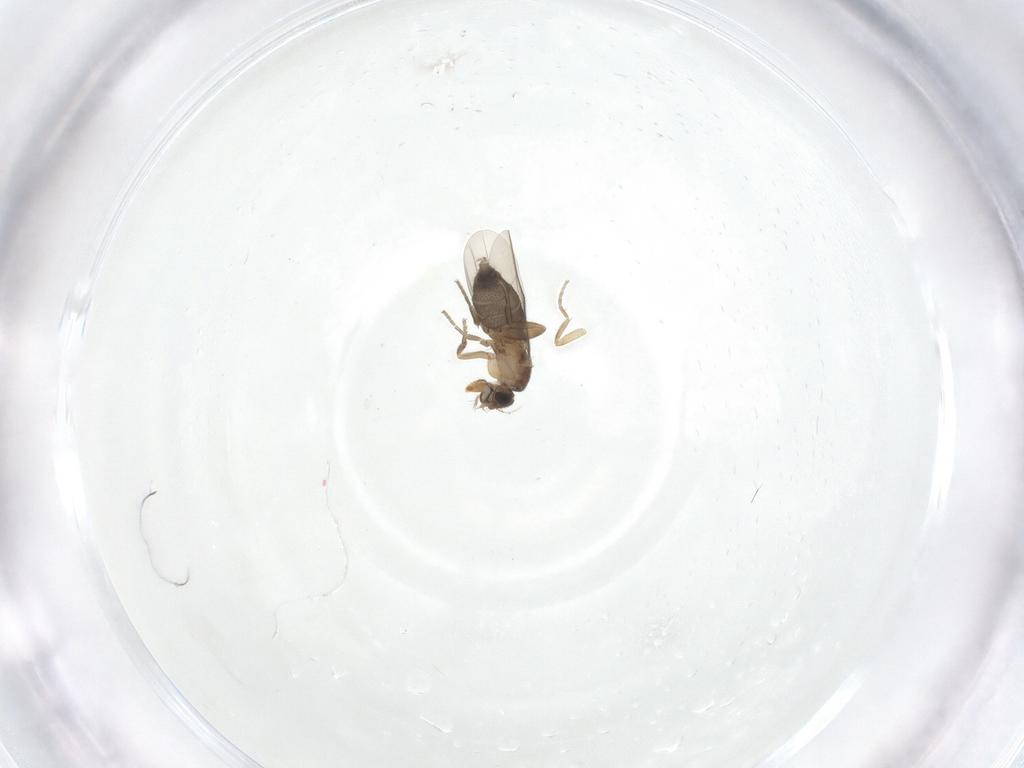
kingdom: Animalia
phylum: Arthropoda
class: Insecta
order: Diptera
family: Phoridae
